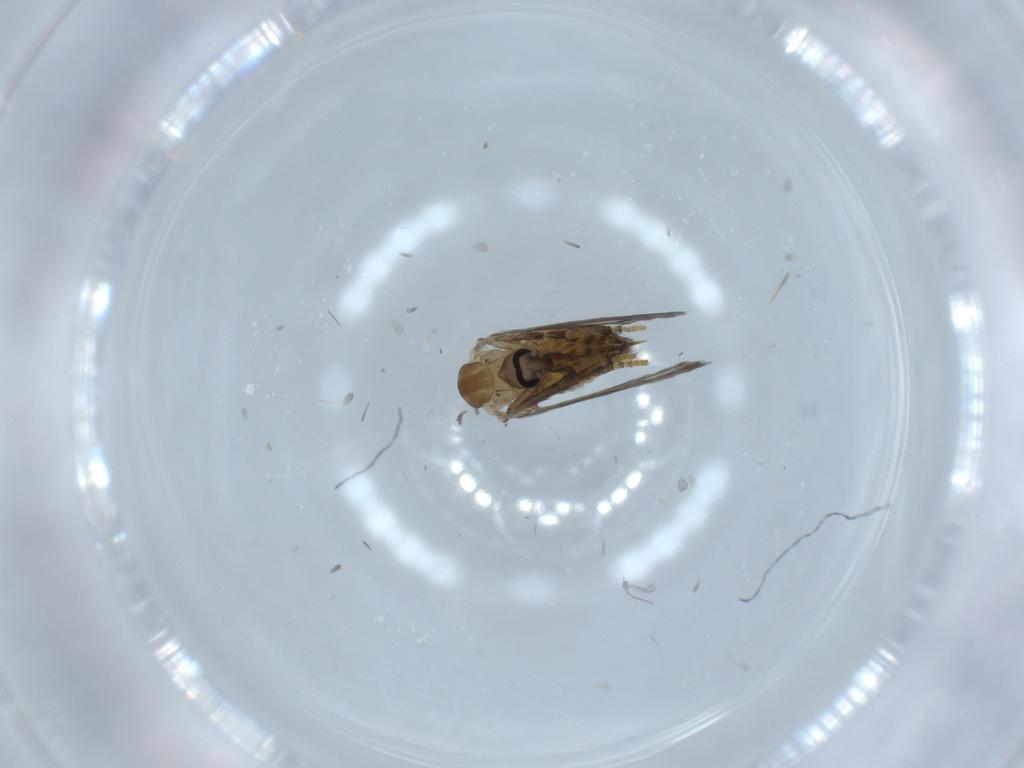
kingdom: Animalia
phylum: Arthropoda
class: Insecta
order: Diptera
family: Psychodidae
